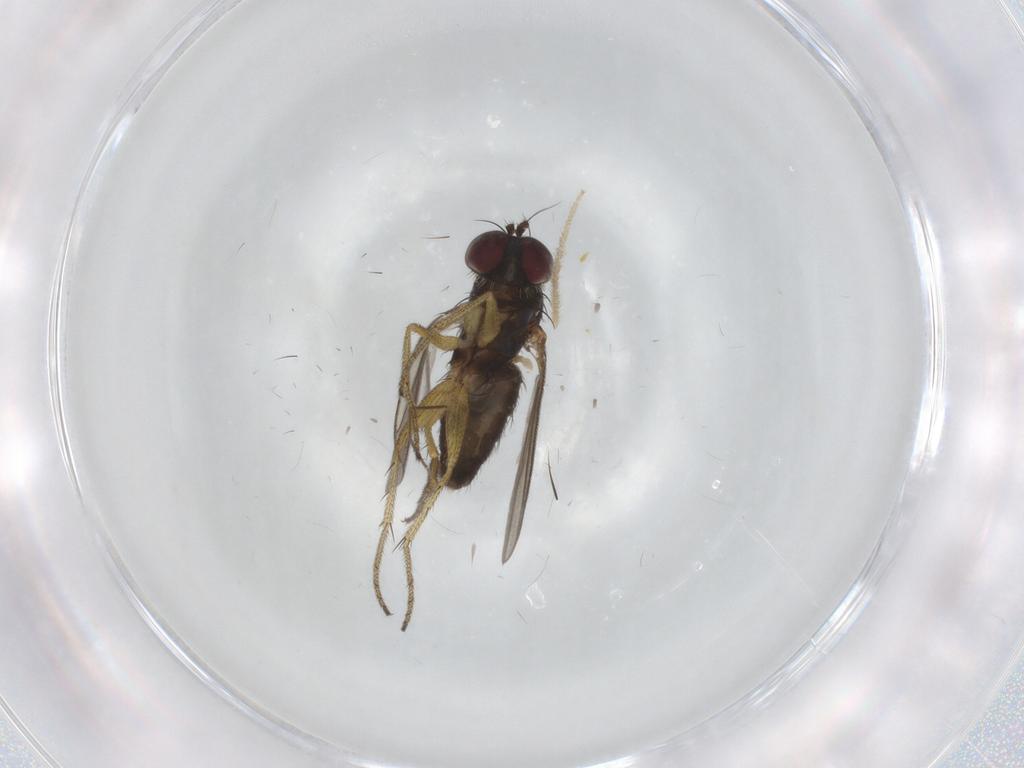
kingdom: Animalia
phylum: Arthropoda
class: Insecta
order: Diptera
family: Chironomidae
